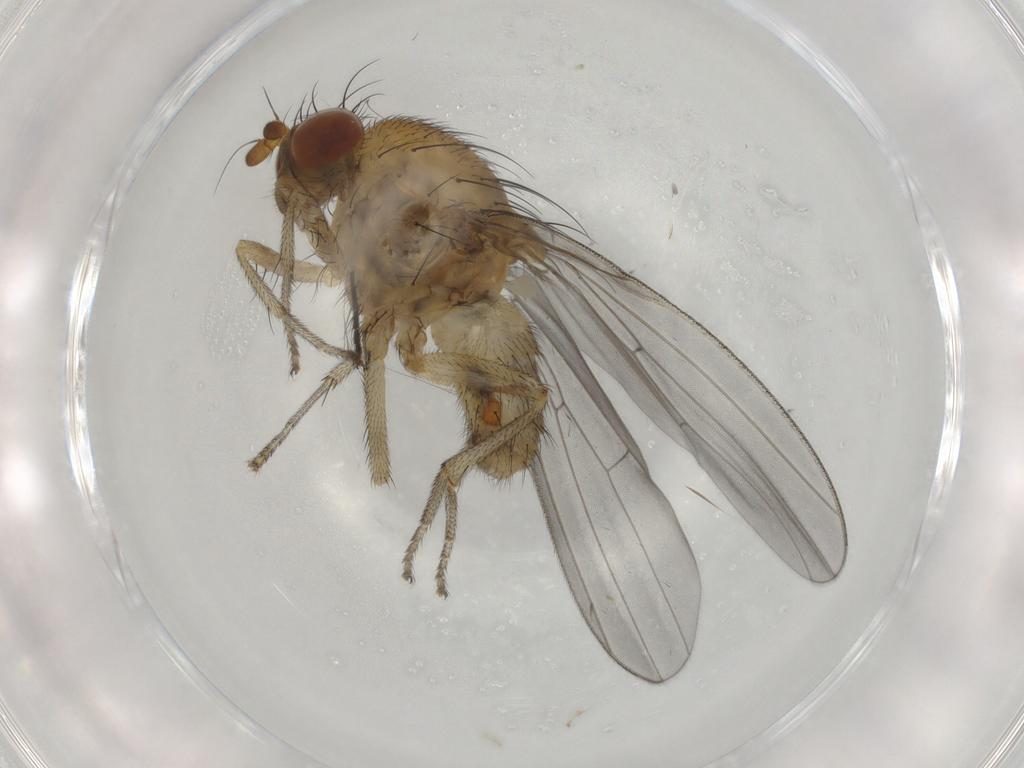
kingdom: Animalia
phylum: Arthropoda
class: Insecta
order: Diptera
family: Lauxaniidae
